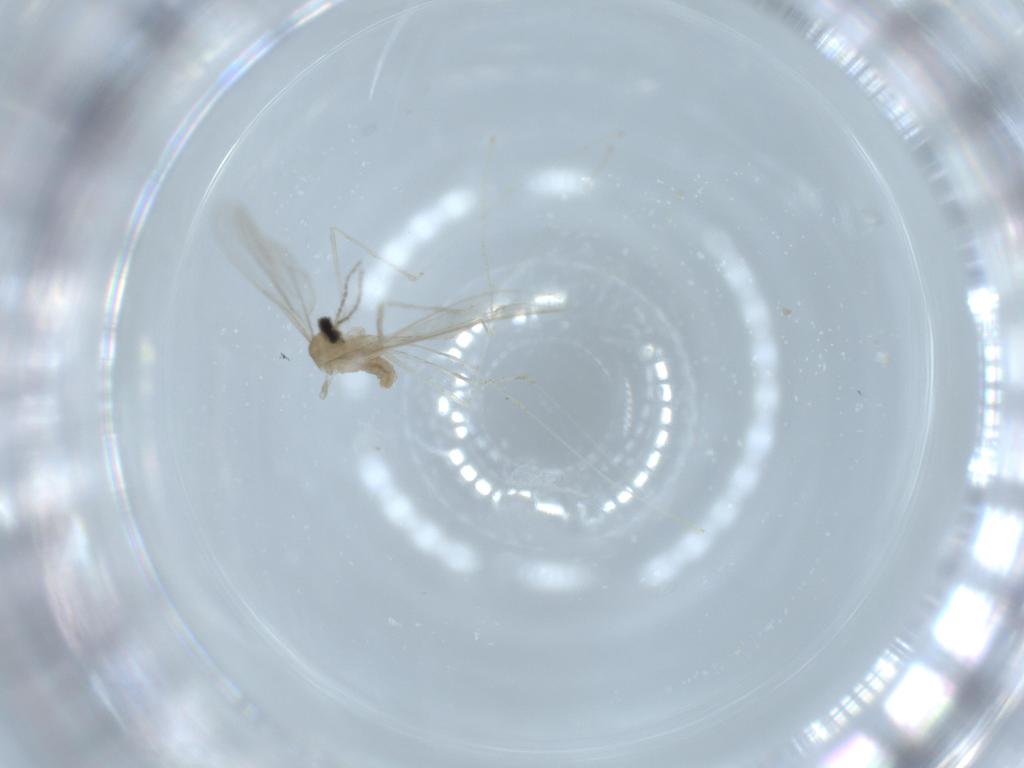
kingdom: Animalia
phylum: Arthropoda
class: Insecta
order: Diptera
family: Keroplatidae
